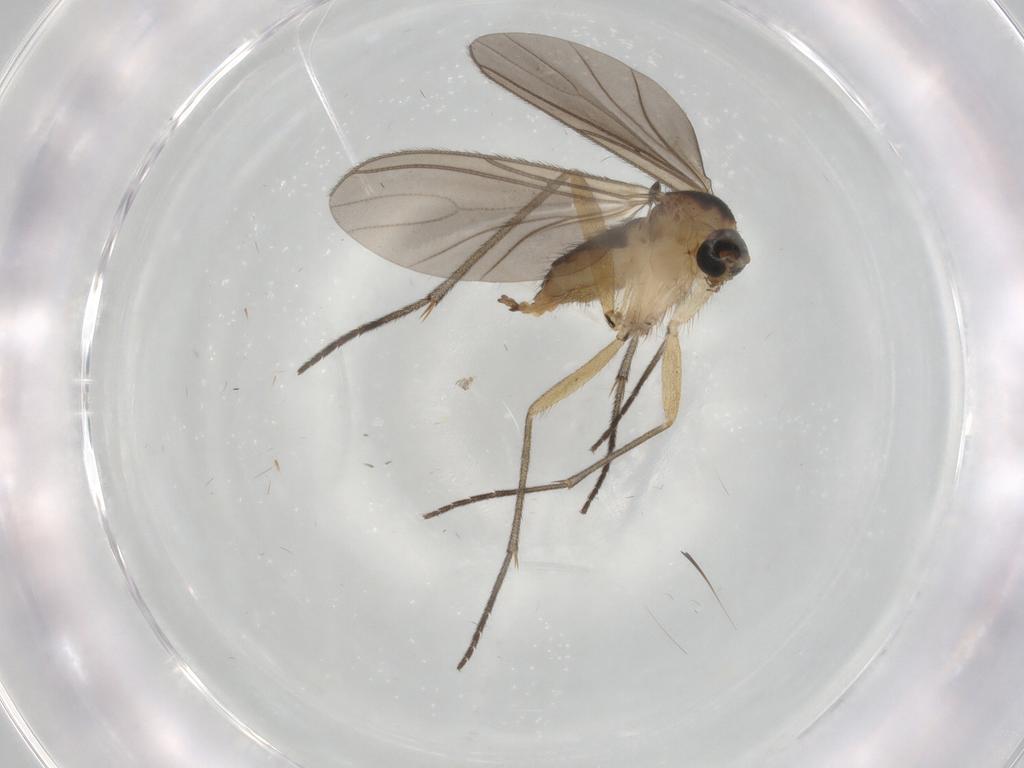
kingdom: Animalia
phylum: Arthropoda
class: Insecta
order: Diptera
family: Sciaridae
